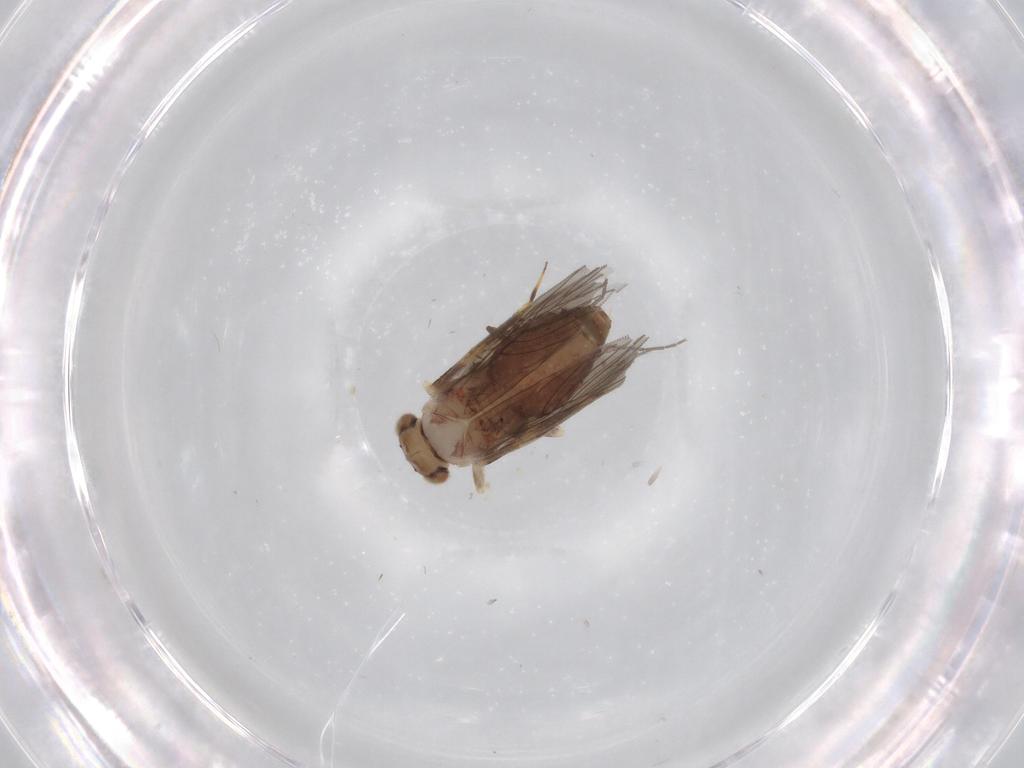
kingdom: Animalia
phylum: Arthropoda
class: Insecta
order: Psocodea
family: Lepidopsocidae
